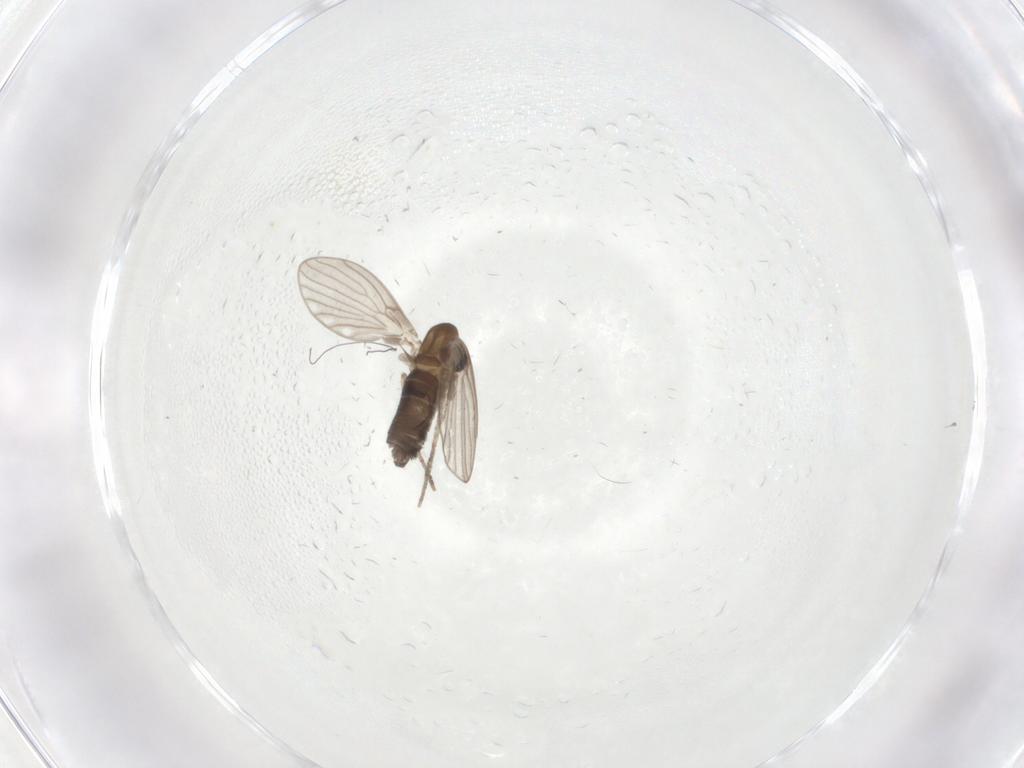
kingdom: Animalia
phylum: Arthropoda
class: Insecta
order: Diptera
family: Psychodidae
